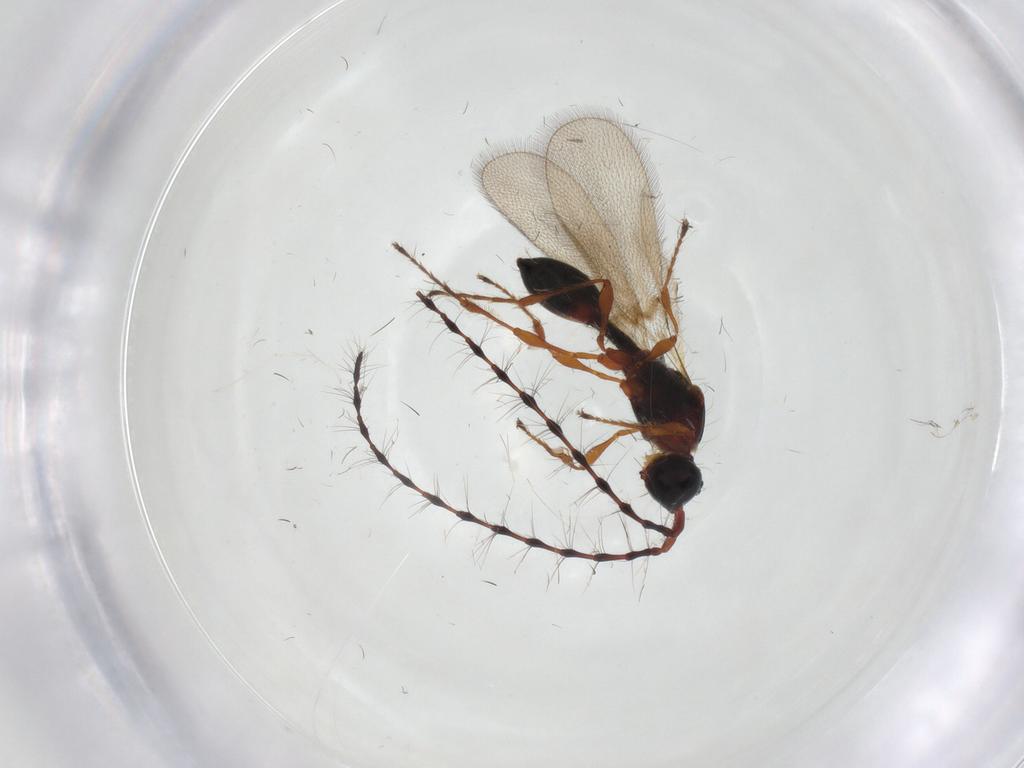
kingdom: Animalia
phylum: Arthropoda
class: Insecta
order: Hymenoptera
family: Diapriidae
